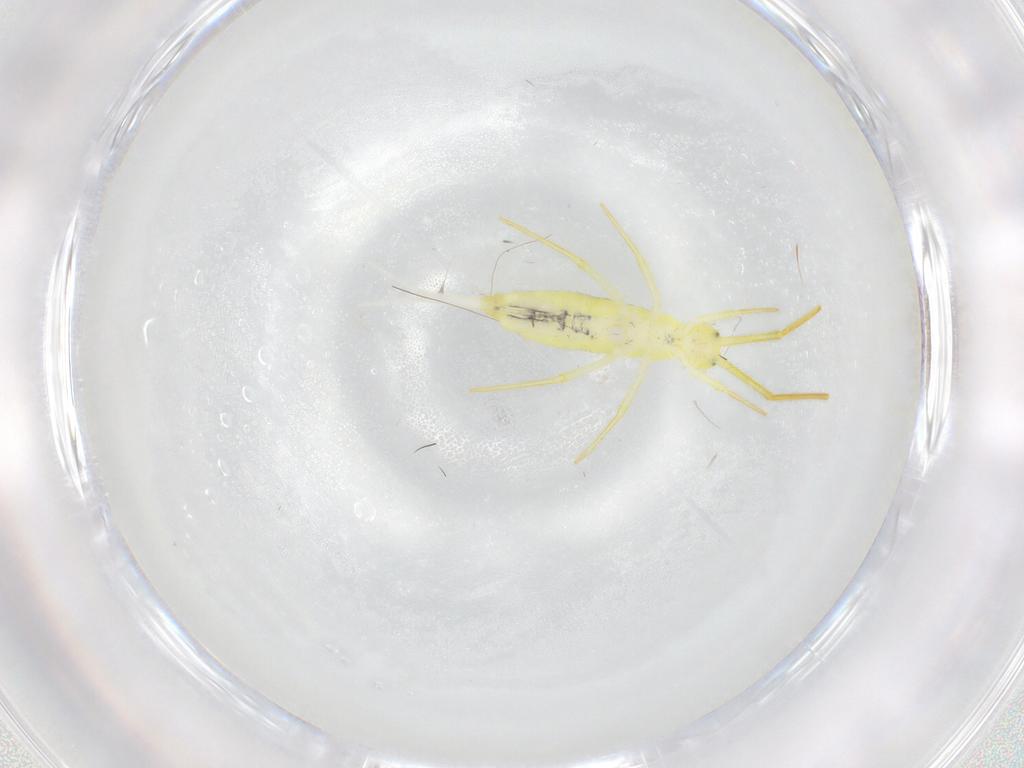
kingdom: Animalia
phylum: Arthropoda
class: Collembola
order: Entomobryomorpha
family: Entomobryidae
